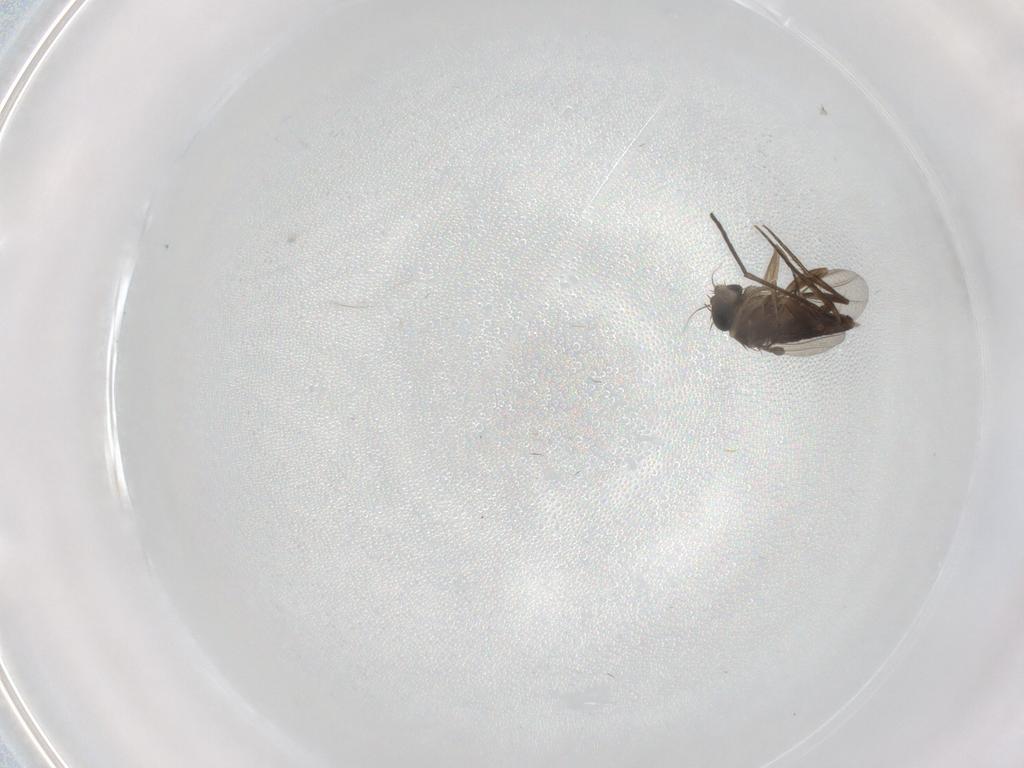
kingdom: Animalia
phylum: Arthropoda
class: Insecta
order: Diptera
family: Phoridae
